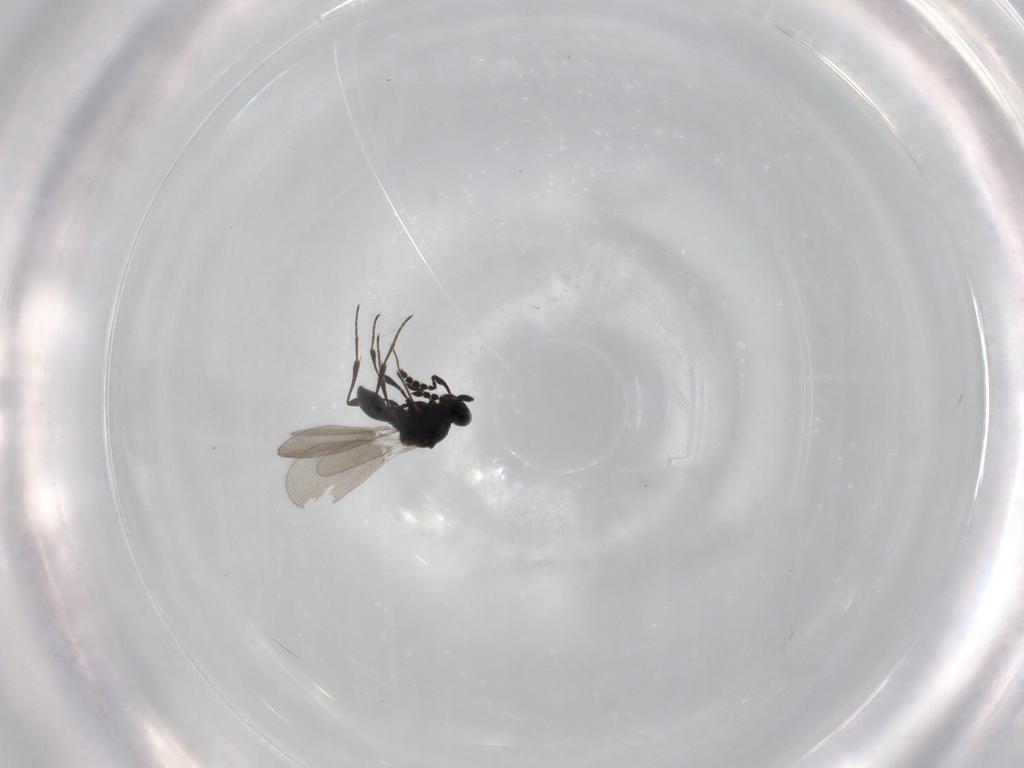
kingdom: Animalia
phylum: Arthropoda
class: Insecta
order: Hymenoptera
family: Platygastridae
